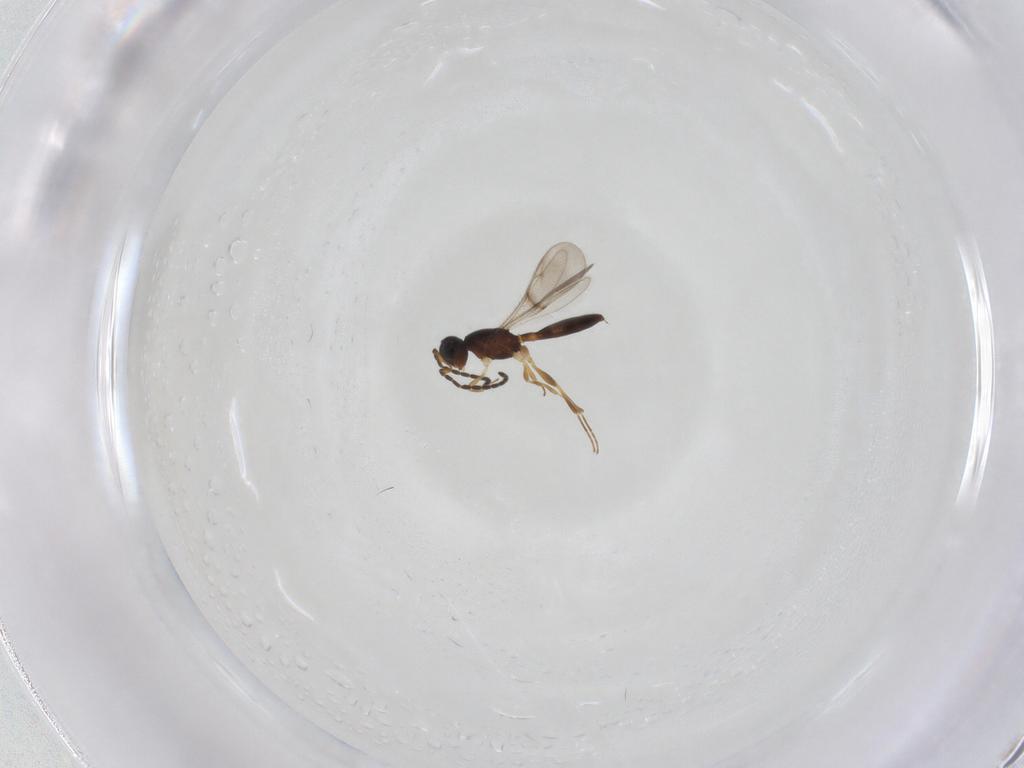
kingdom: Animalia
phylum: Arthropoda
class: Insecta
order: Hymenoptera
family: Scelionidae
